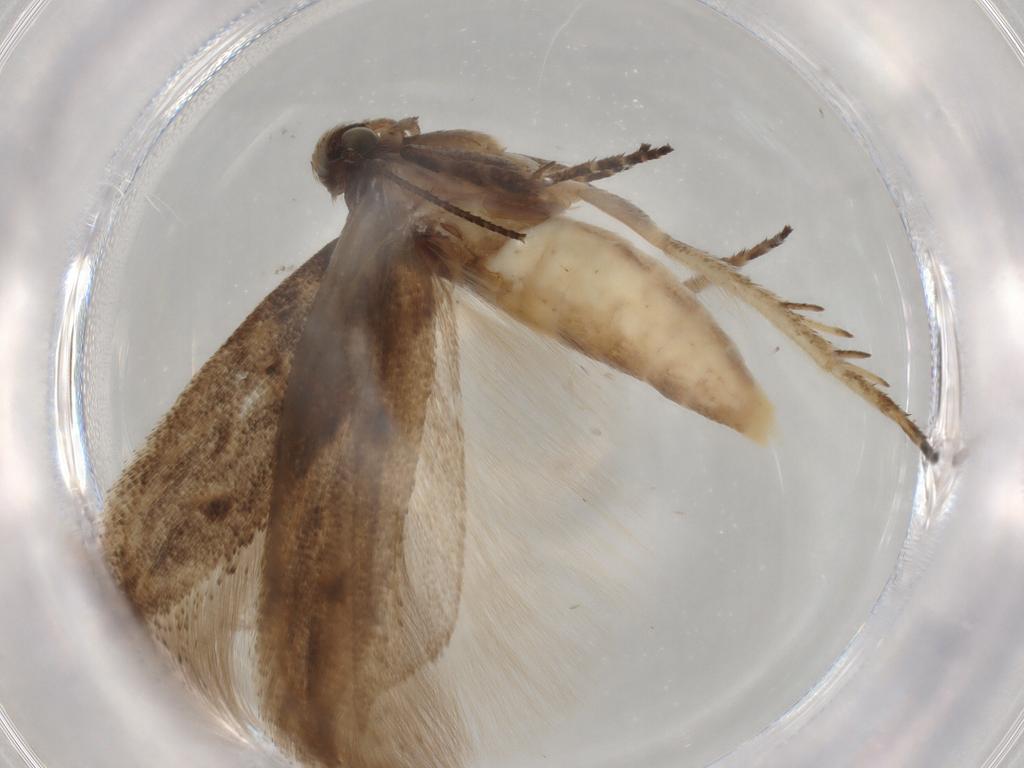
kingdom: Animalia
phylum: Arthropoda
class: Insecta
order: Lepidoptera
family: Gelechiidae
